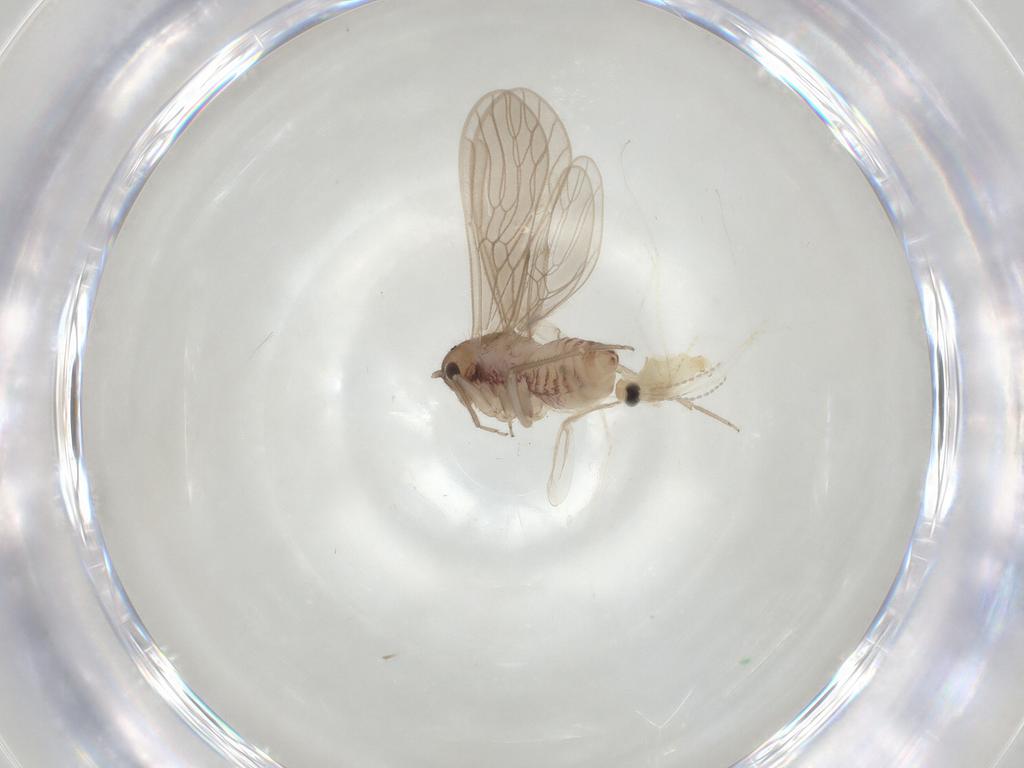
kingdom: Animalia
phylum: Arthropoda
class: Insecta
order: Diptera
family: Cecidomyiidae
